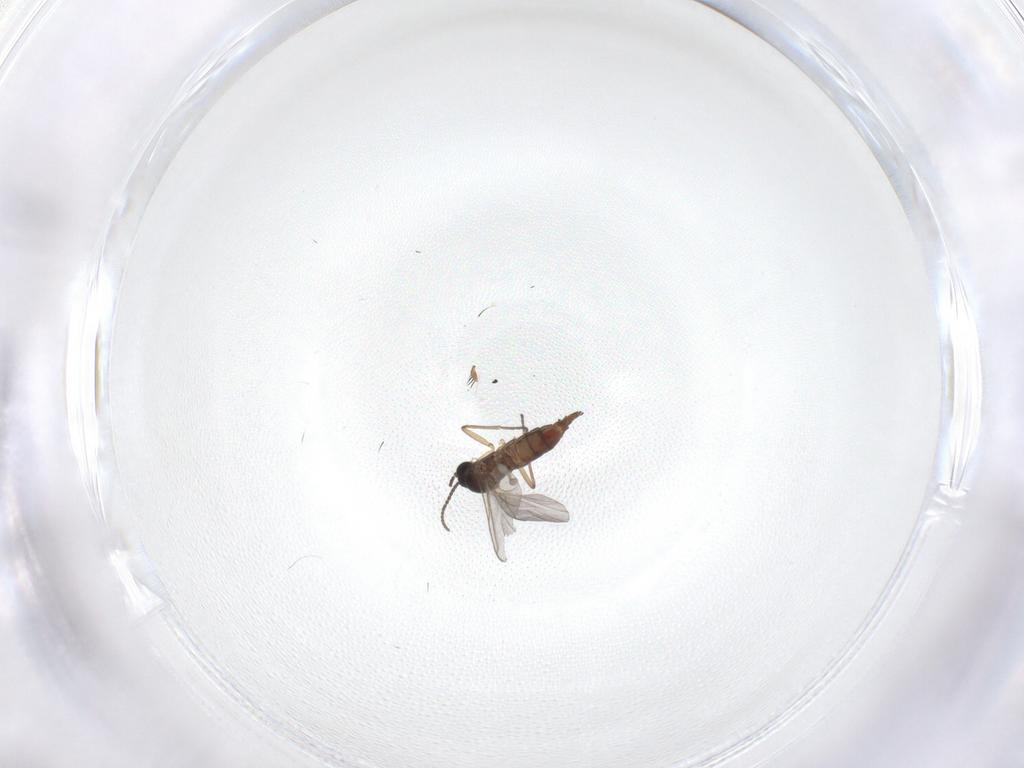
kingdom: Animalia
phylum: Arthropoda
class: Insecta
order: Diptera
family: Sciaridae
